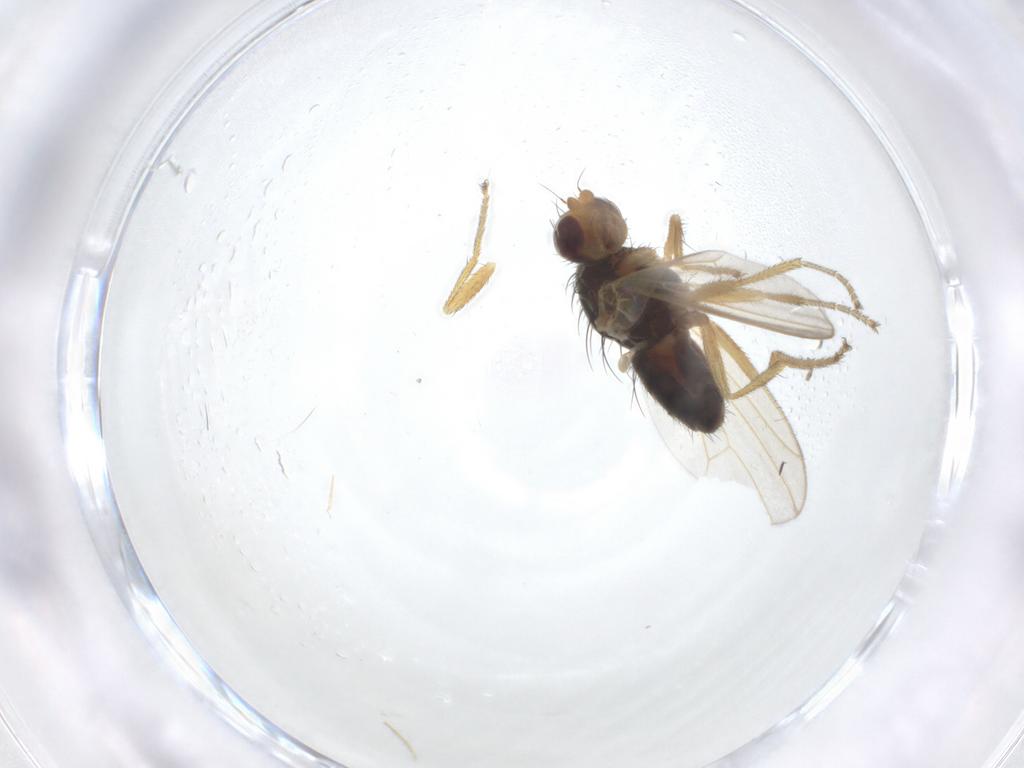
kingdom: Animalia
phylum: Arthropoda
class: Insecta
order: Diptera
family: Heleomyzidae
